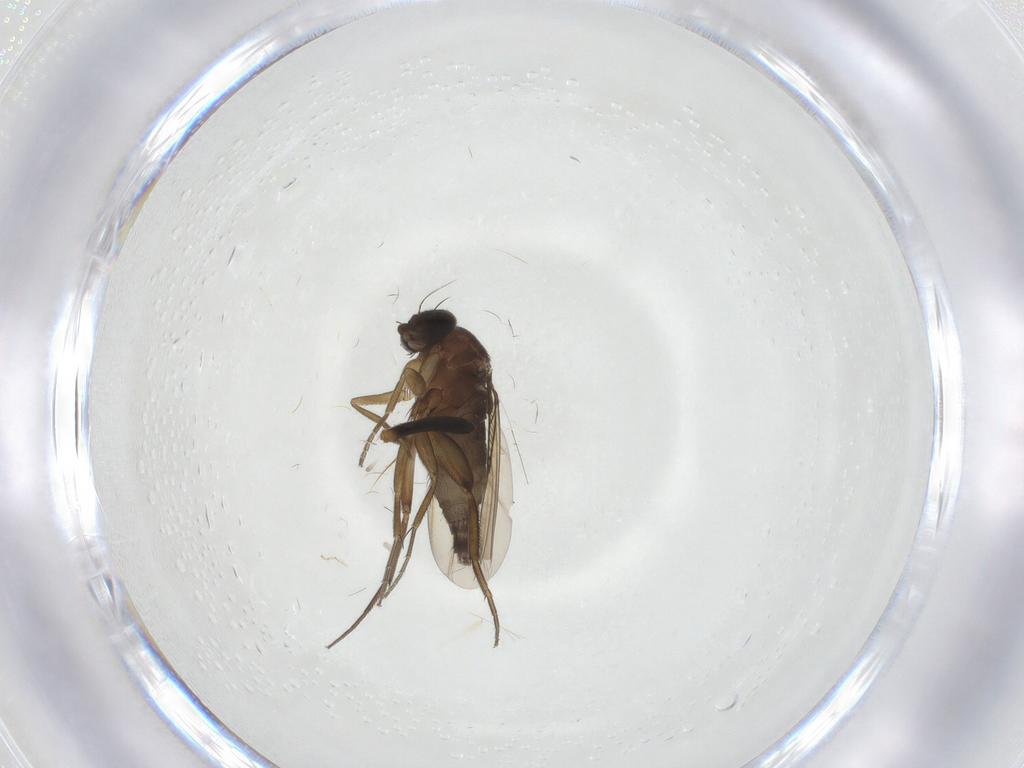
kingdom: Animalia
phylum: Arthropoda
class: Insecta
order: Diptera
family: Phoridae
